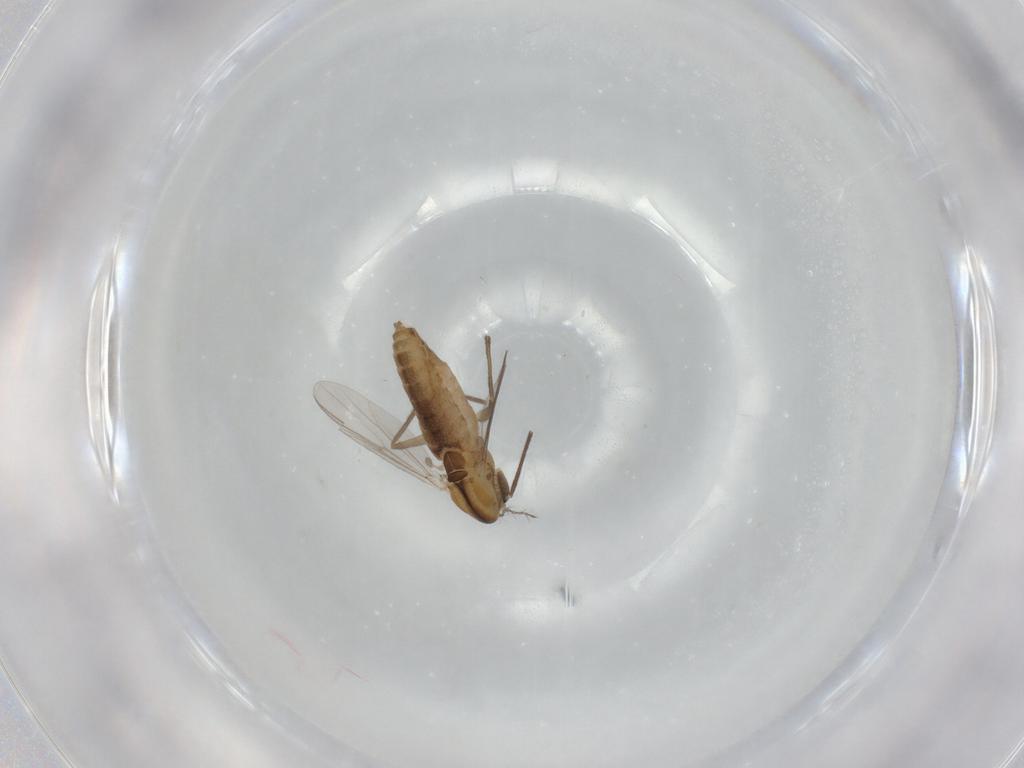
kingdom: Animalia
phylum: Arthropoda
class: Insecta
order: Diptera
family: Chironomidae
